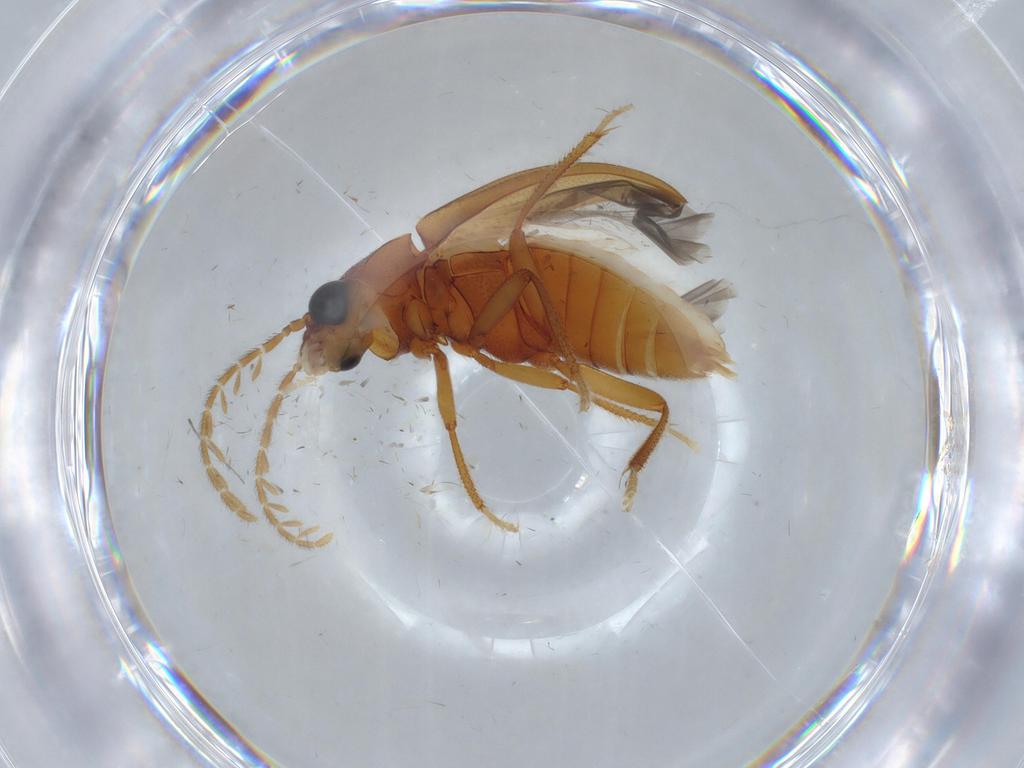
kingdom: Animalia
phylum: Arthropoda
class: Insecta
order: Coleoptera
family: Ptilodactylidae
